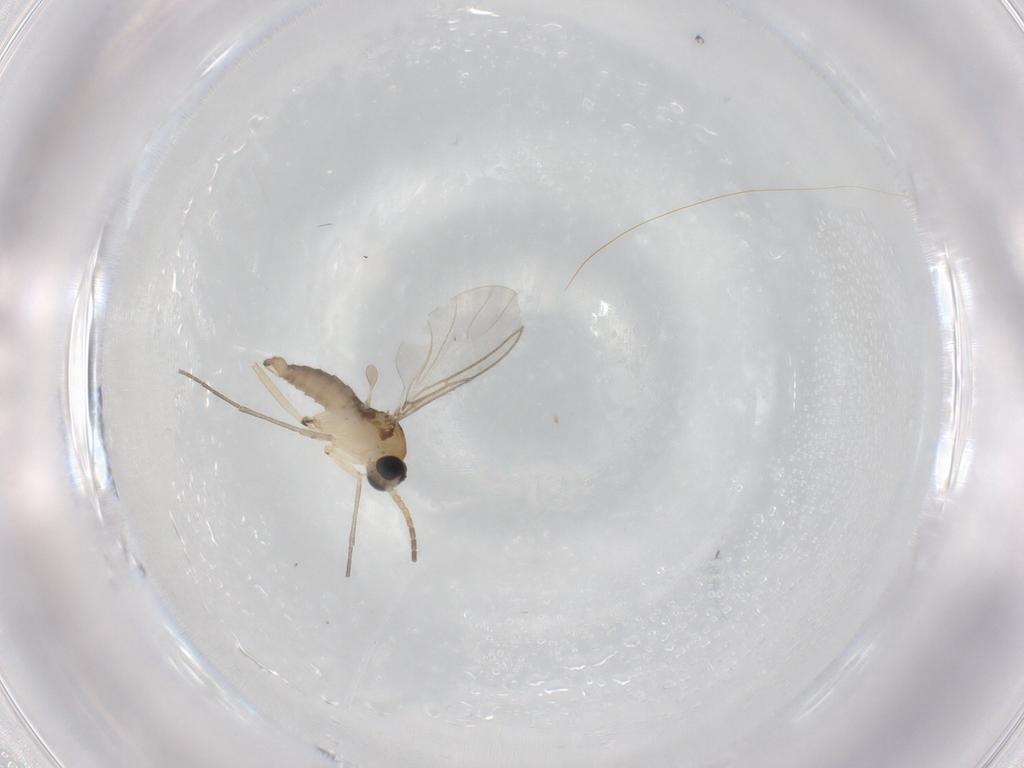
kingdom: Animalia
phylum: Arthropoda
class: Insecta
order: Diptera
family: Sciaridae
